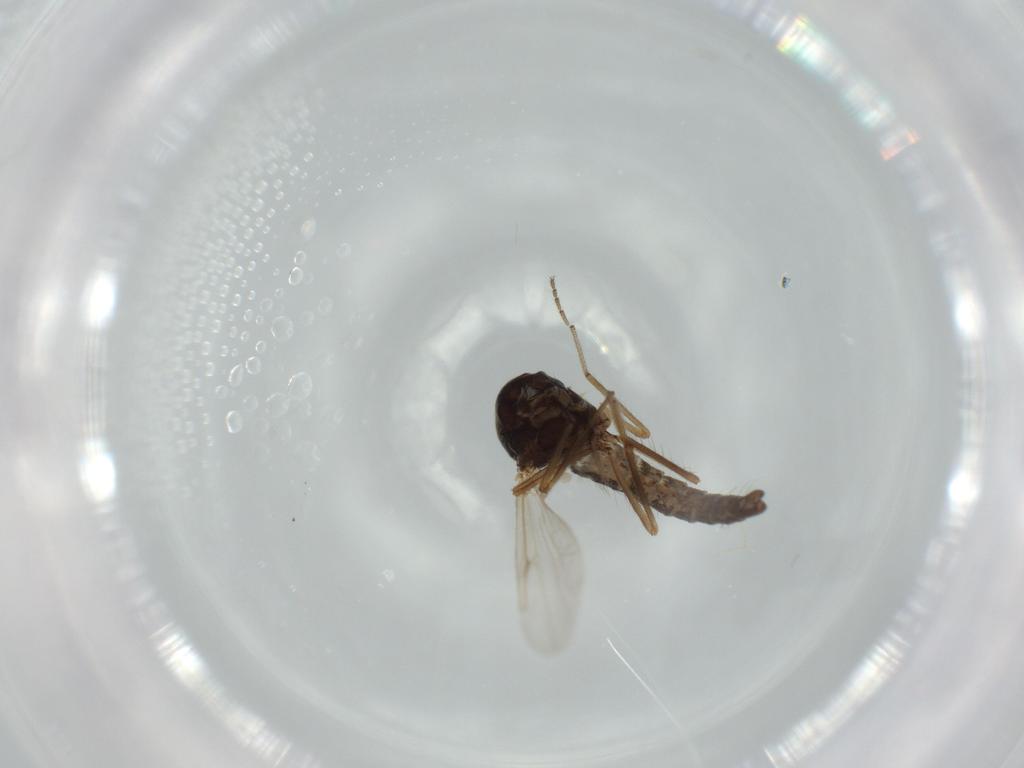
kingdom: Animalia
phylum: Arthropoda
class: Insecta
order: Diptera
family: Ceratopogonidae
